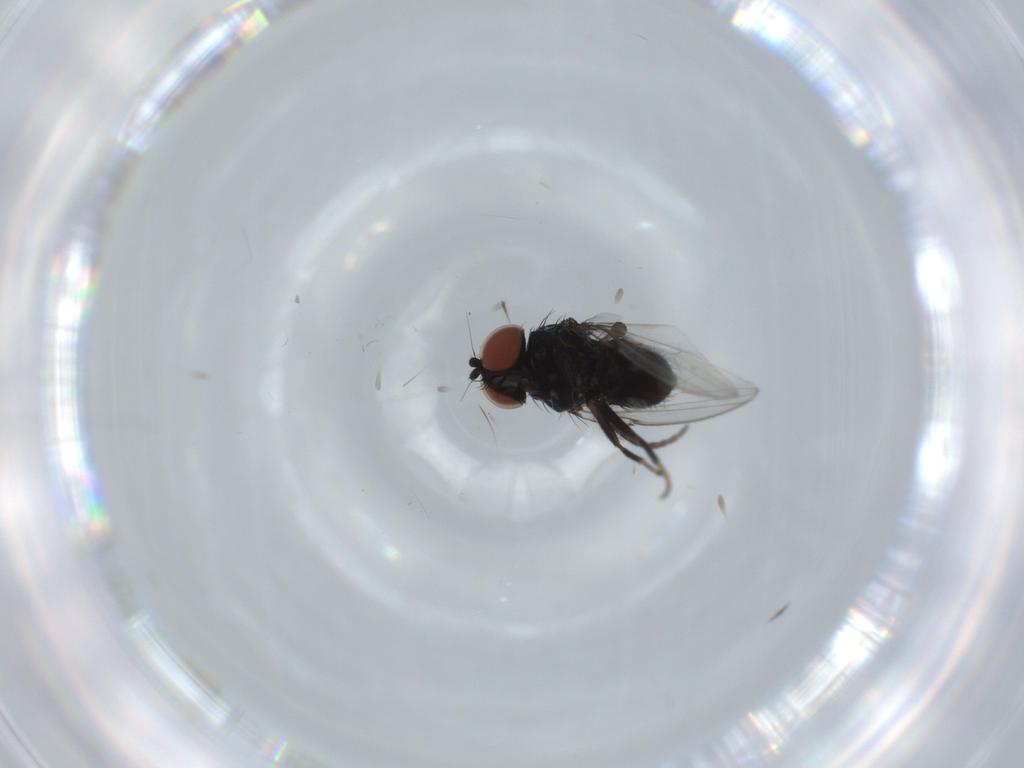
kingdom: Animalia
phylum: Arthropoda
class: Insecta
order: Diptera
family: Milichiidae
